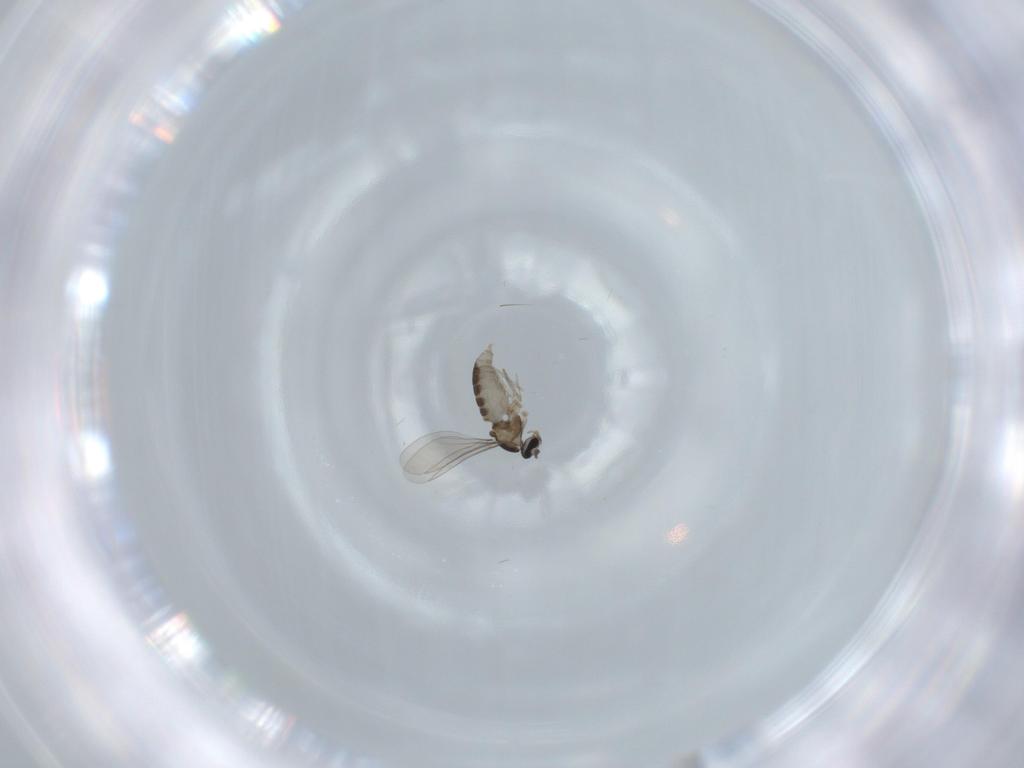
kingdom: Animalia
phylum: Arthropoda
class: Insecta
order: Diptera
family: Cecidomyiidae
